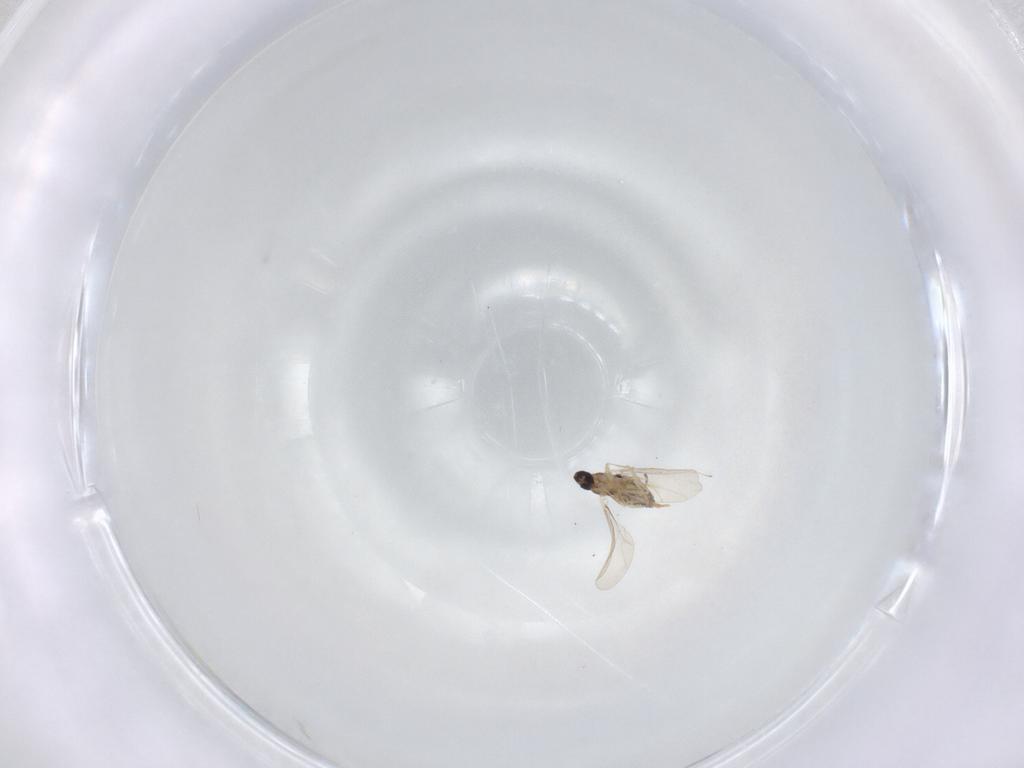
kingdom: Animalia
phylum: Arthropoda
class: Insecta
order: Diptera
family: Cecidomyiidae
